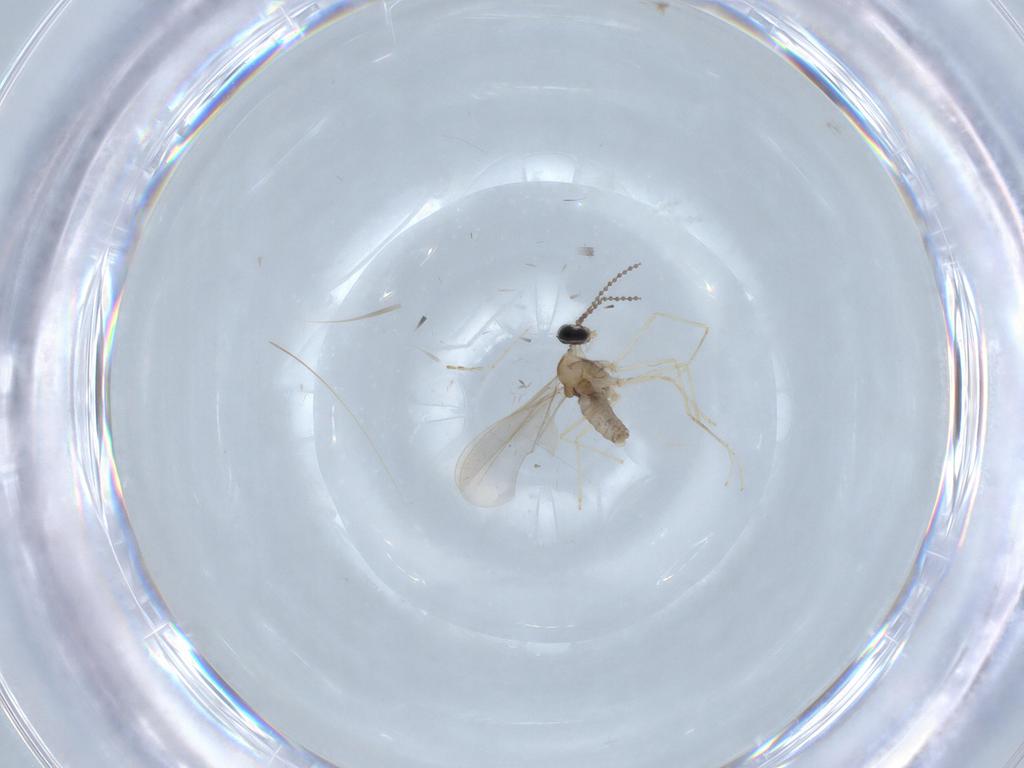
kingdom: Animalia
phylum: Arthropoda
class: Insecta
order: Diptera
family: Cecidomyiidae
